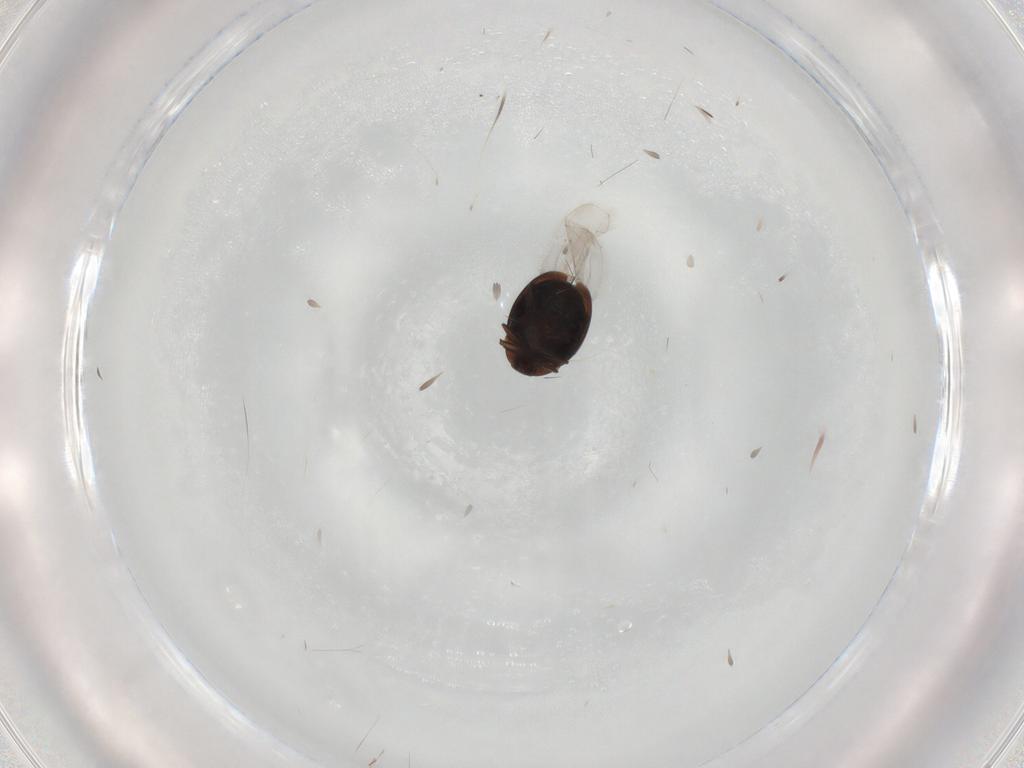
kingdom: Animalia
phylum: Arthropoda
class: Insecta
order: Coleoptera
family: Corylophidae
